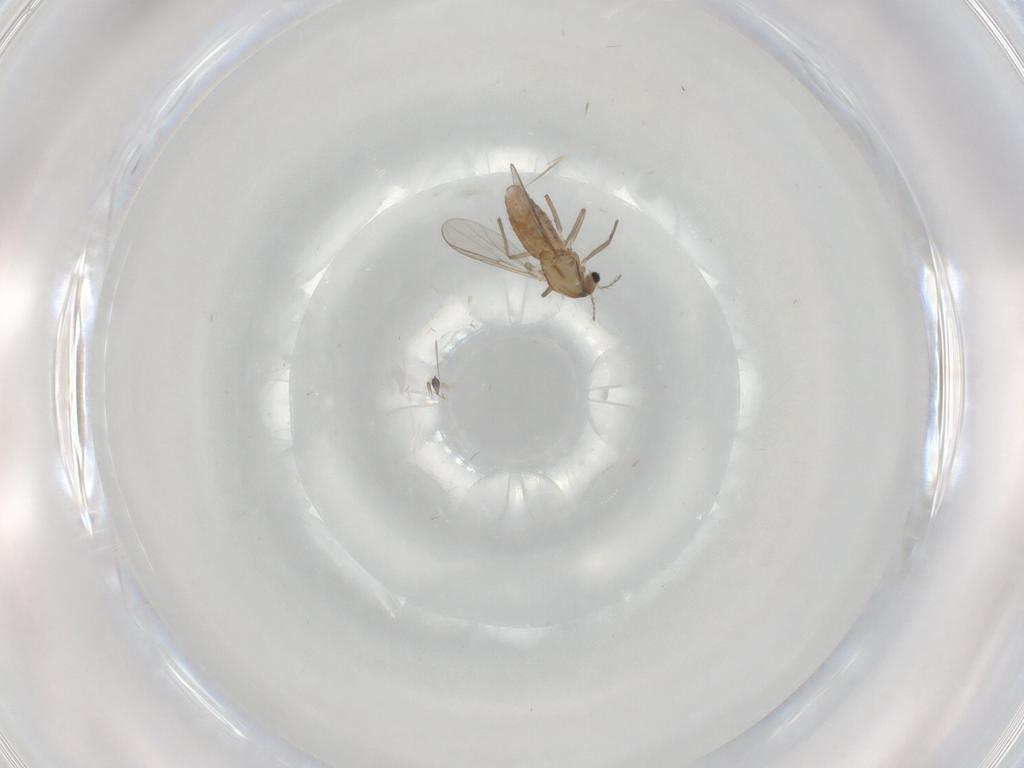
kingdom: Animalia
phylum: Arthropoda
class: Insecta
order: Diptera
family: Chironomidae
